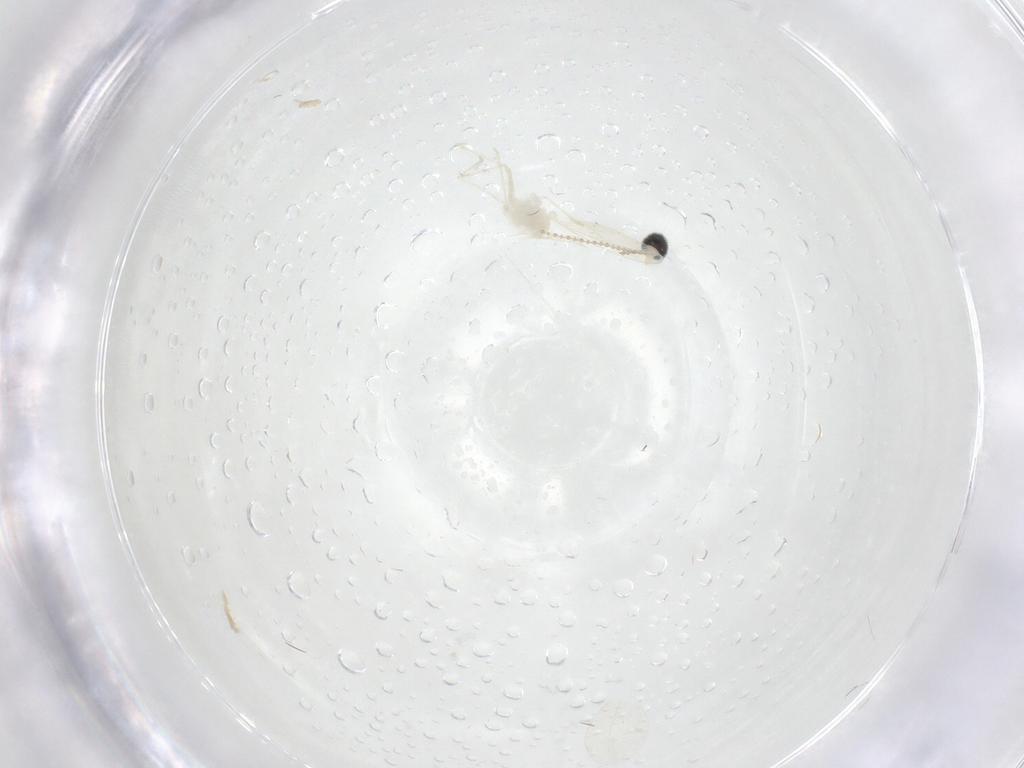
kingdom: Animalia
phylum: Arthropoda
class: Insecta
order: Diptera
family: Cecidomyiidae
